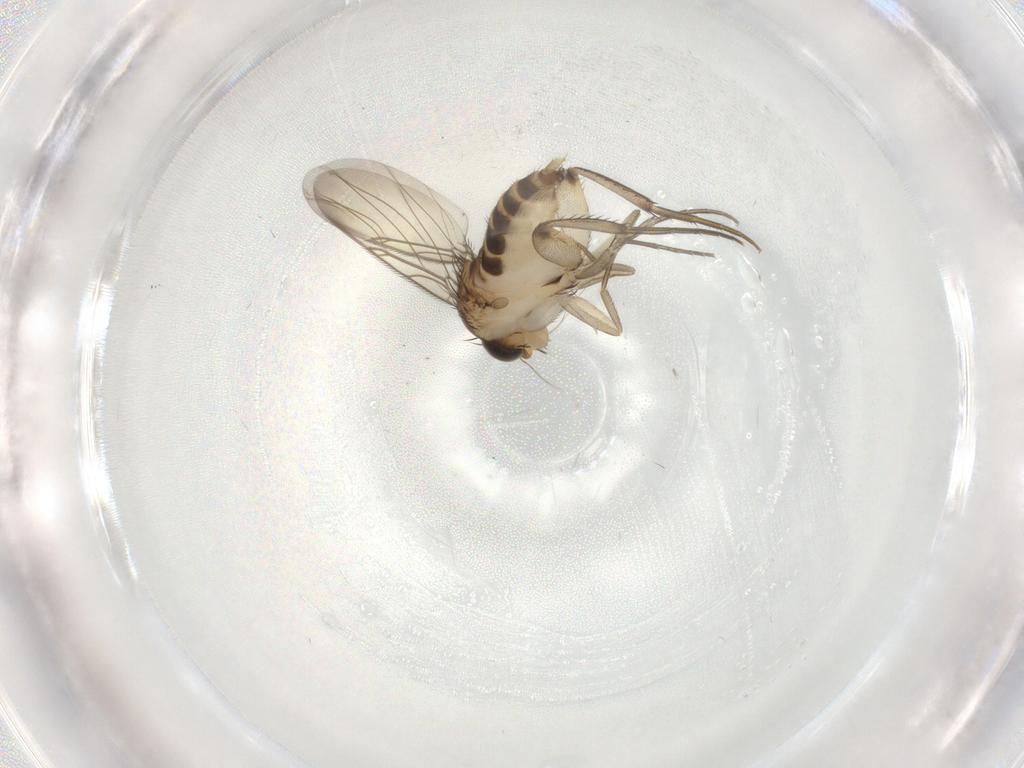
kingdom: Animalia
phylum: Arthropoda
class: Insecta
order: Diptera
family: Phoridae
